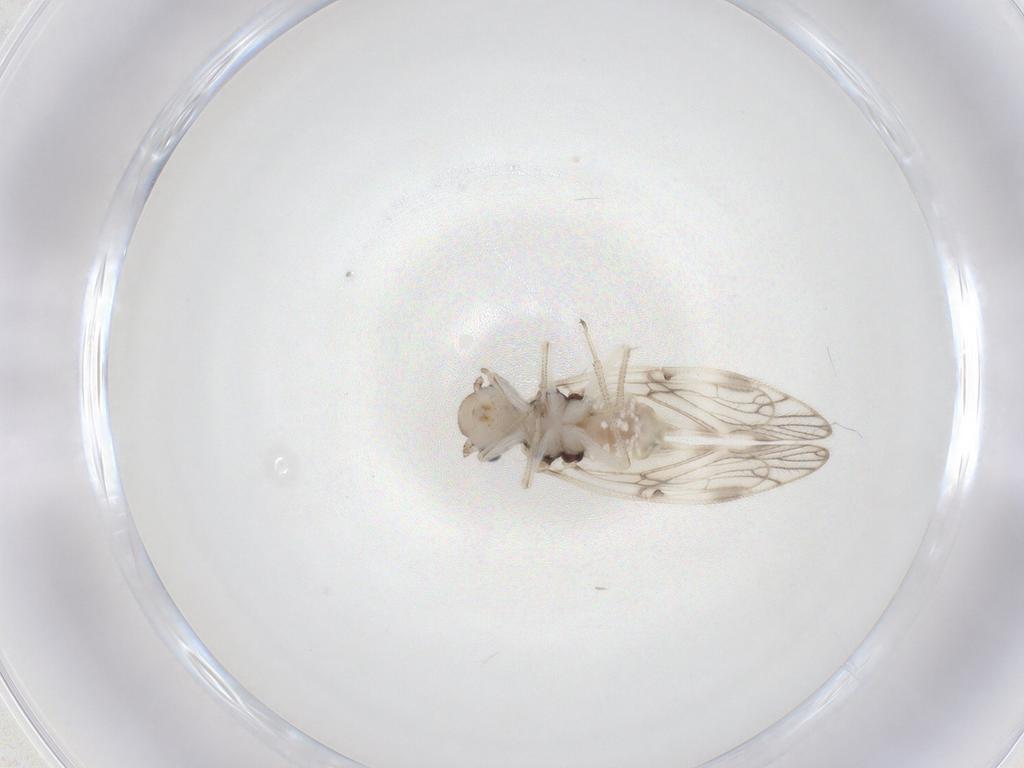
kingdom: Animalia
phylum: Arthropoda
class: Insecta
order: Psocodea
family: Caeciliusidae
